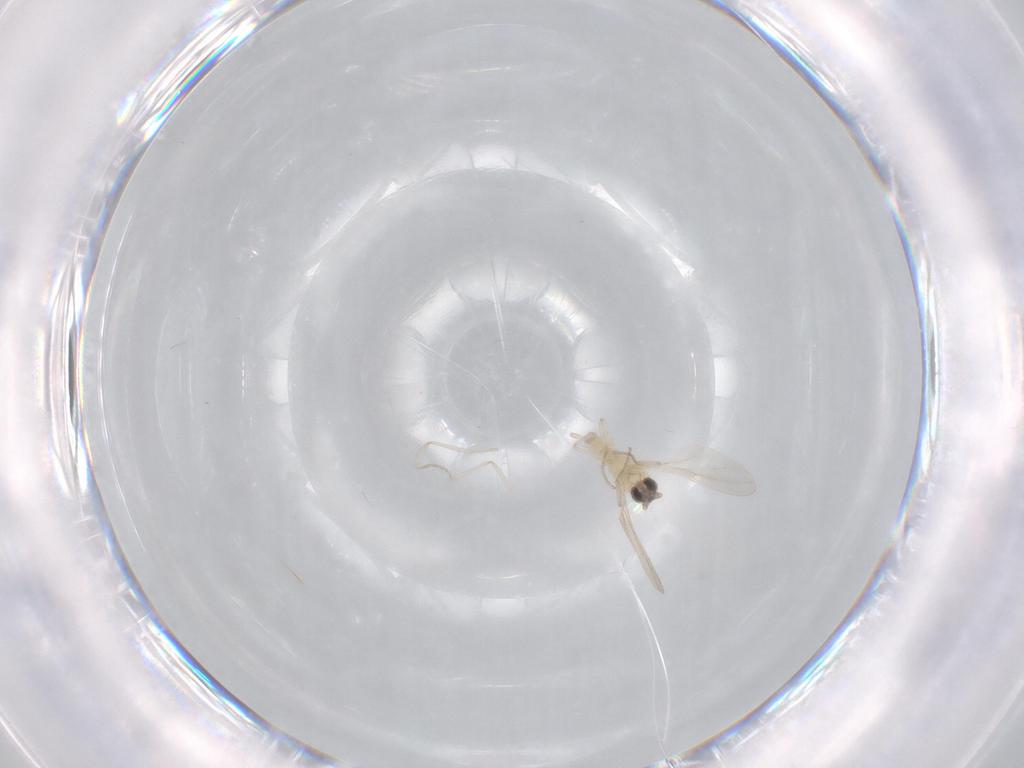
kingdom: Animalia
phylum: Arthropoda
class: Insecta
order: Diptera
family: Cecidomyiidae
